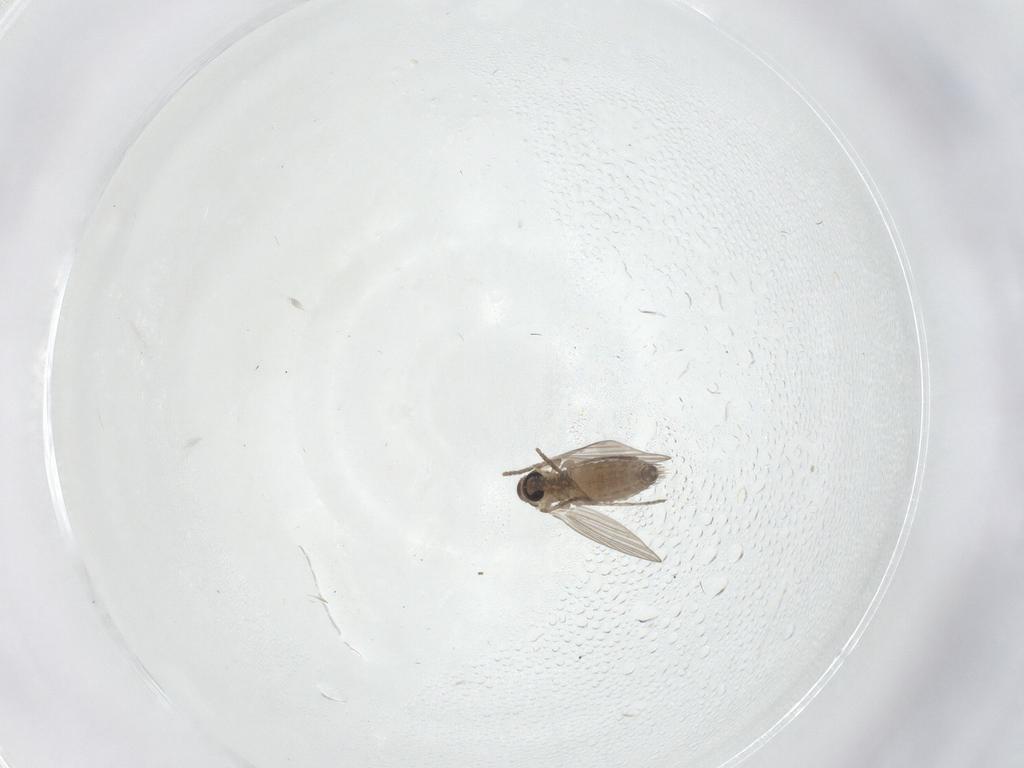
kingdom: Animalia
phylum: Arthropoda
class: Insecta
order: Diptera
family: Psychodidae
